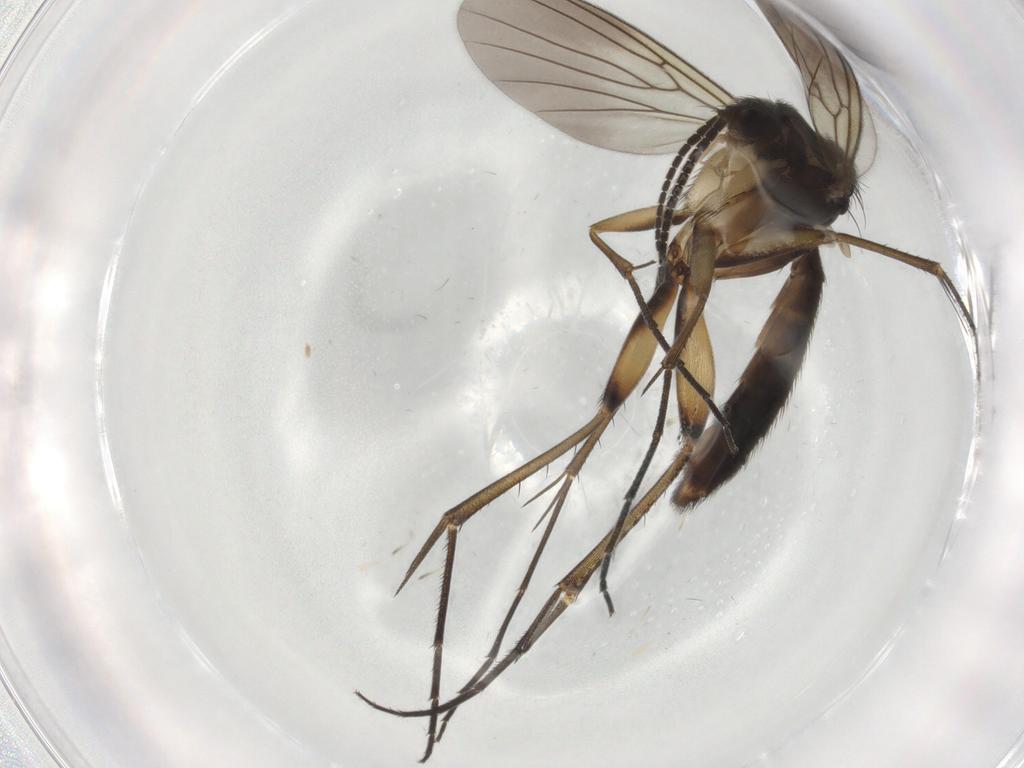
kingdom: Animalia
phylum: Arthropoda
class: Insecta
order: Diptera
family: Mycetophilidae
